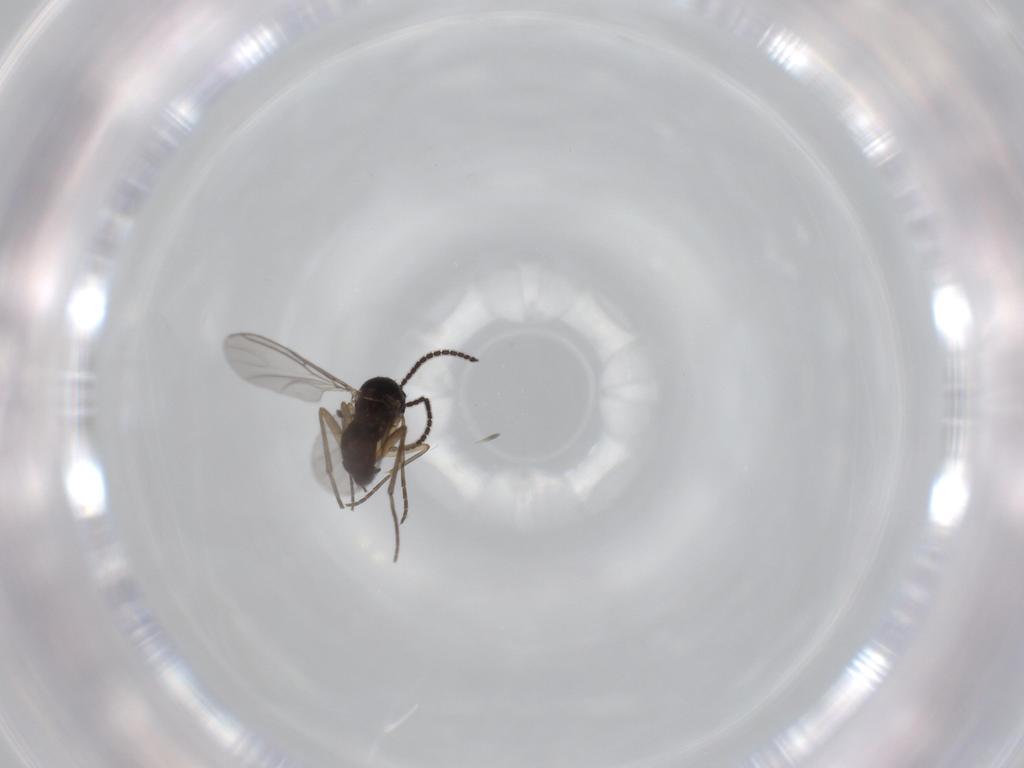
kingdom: Animalia
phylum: Arthropoda
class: Insecta
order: Diptera
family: Sciaridae
